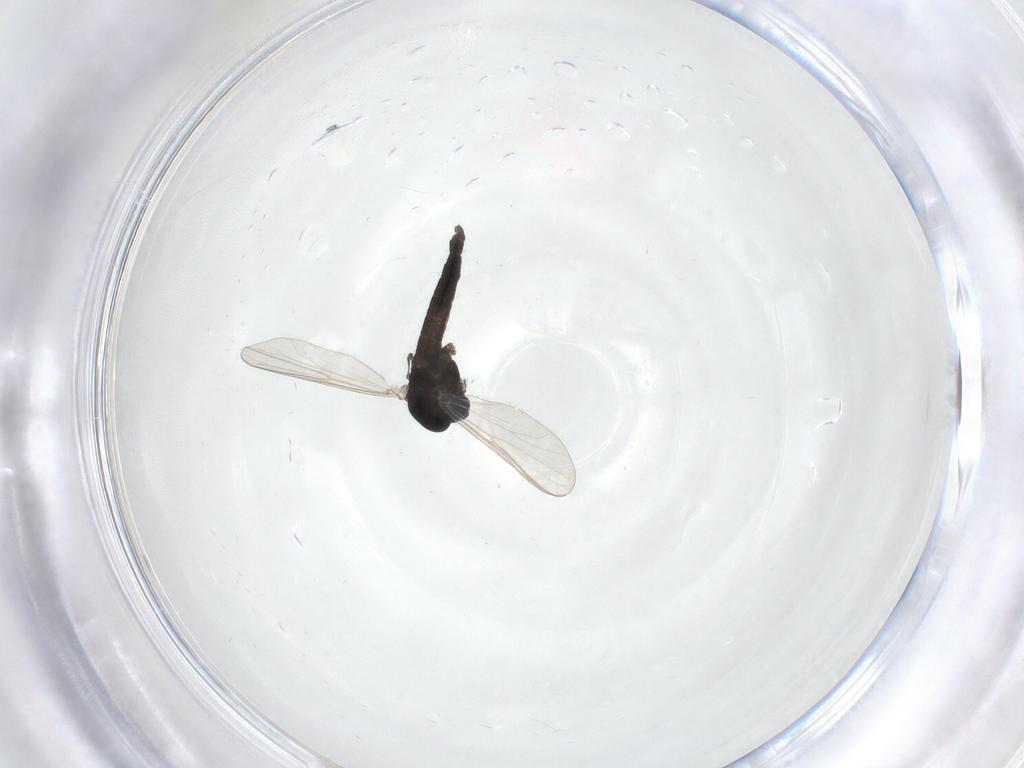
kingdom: Animalia
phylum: Arthropoda
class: Insecta
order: Diptera
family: Chironomidae
